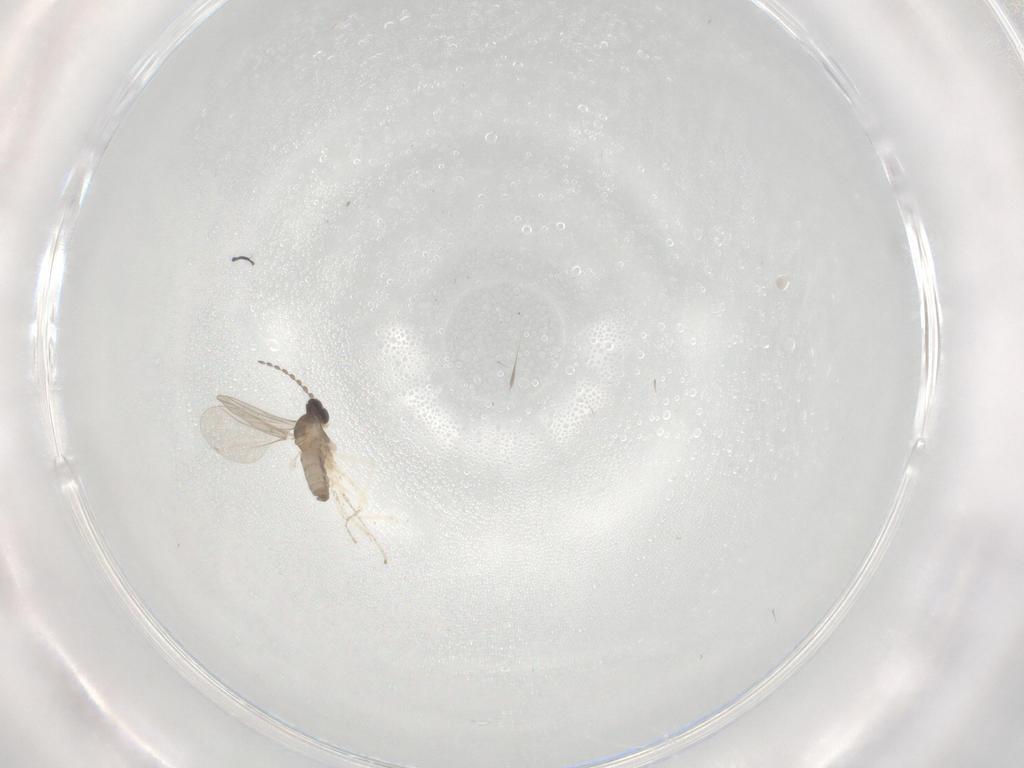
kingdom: Animalia
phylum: Arthropoda
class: Insecta
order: Diptera
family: Cecidomyiidae
